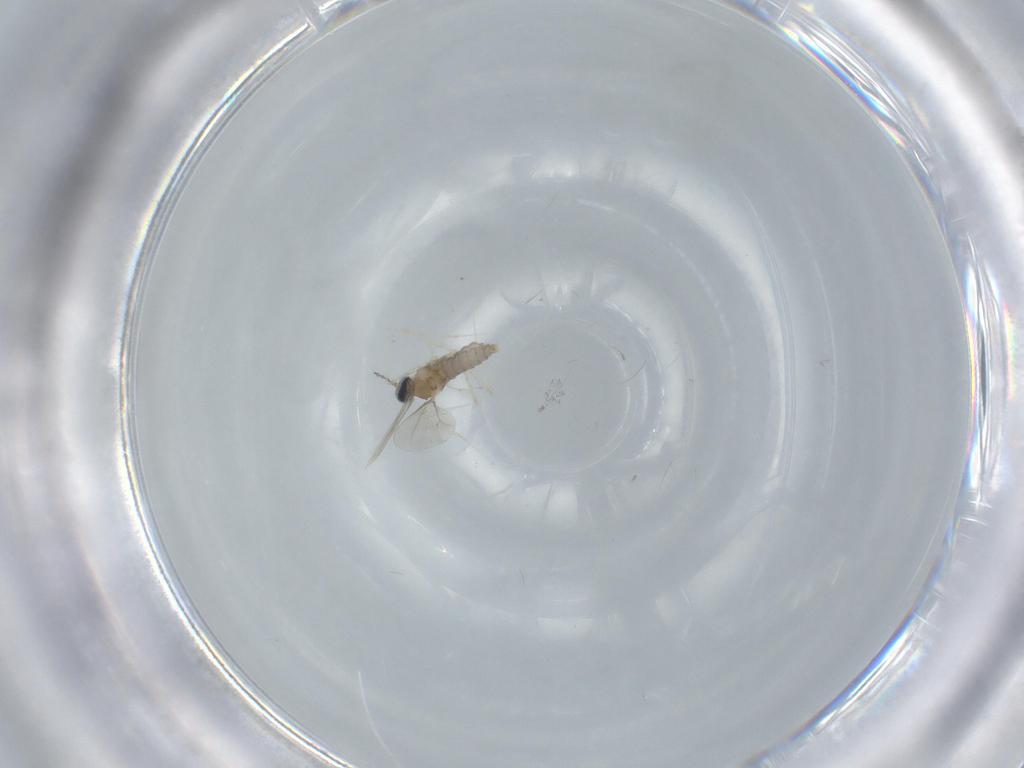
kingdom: Animalia
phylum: Arthropoda
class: Insecta
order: Diptera
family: Cecidomyiidae
